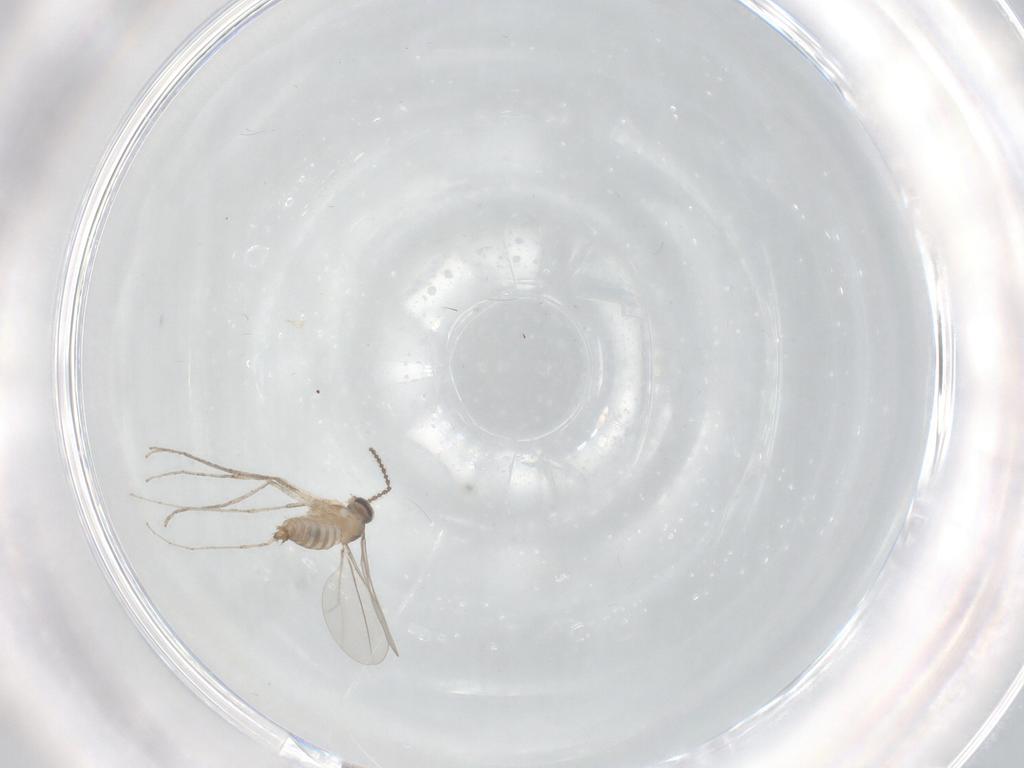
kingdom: Animalia
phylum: Arthropoda
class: Insecta
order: Diptera
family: Cecidomyiidae
